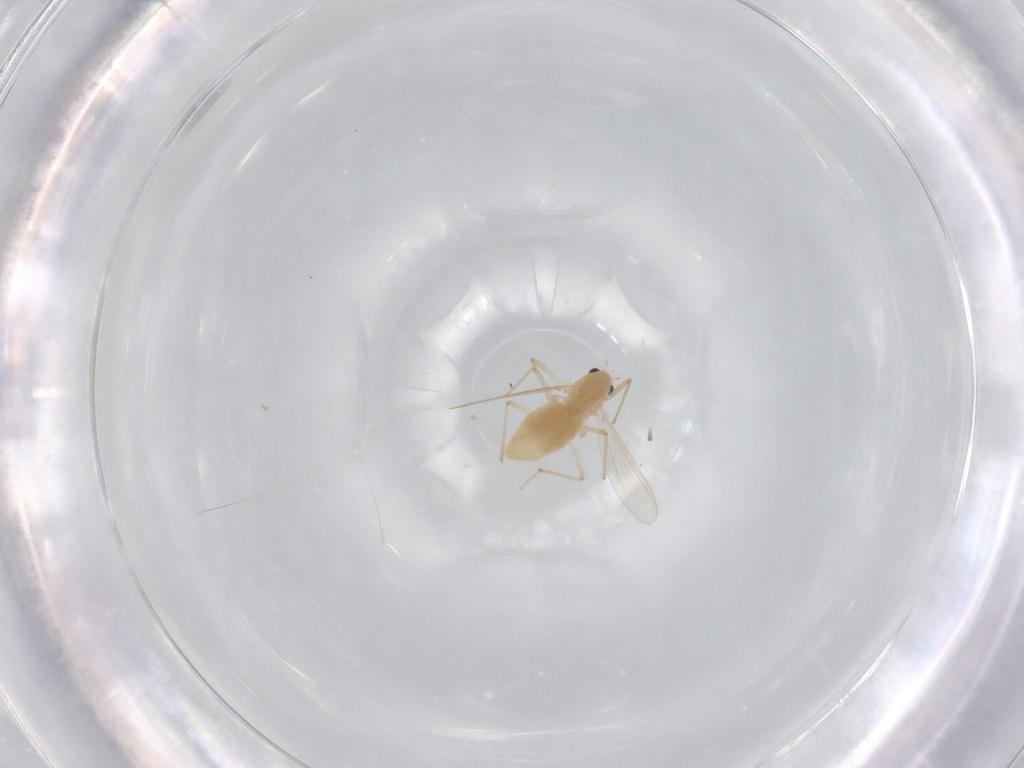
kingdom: Animalia
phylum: Arthropoda
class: Insecta
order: Diptera
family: Chironomidae
